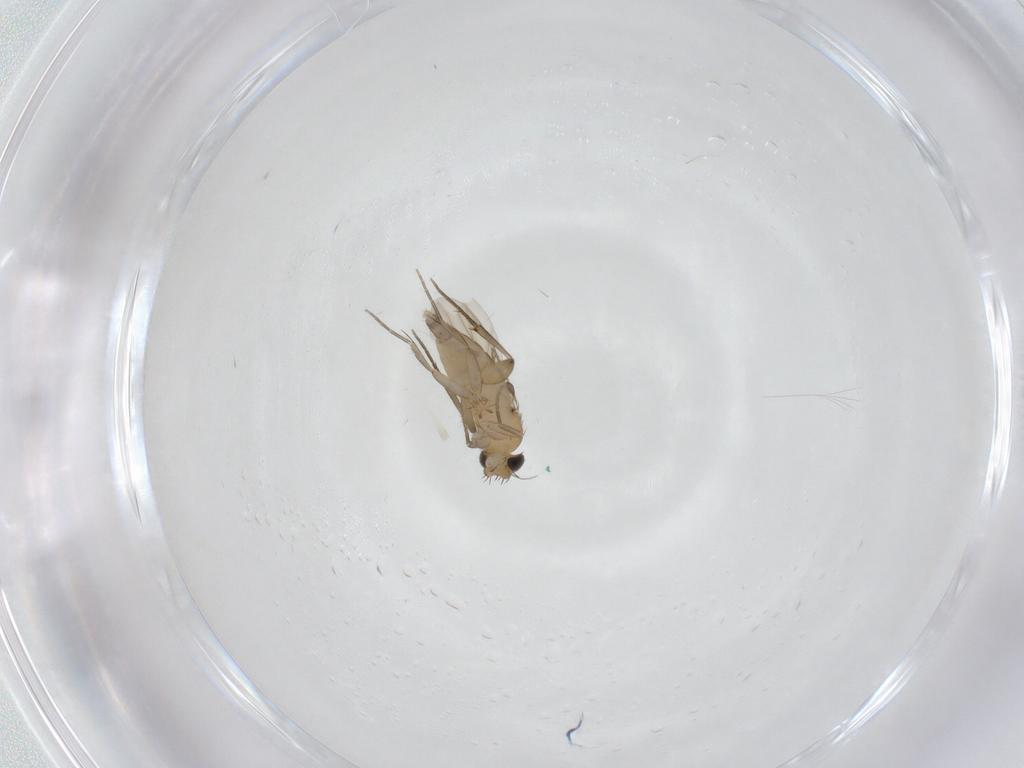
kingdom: Animalia
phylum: Arthropoda
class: Insecta
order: Diptera
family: Phoridae
